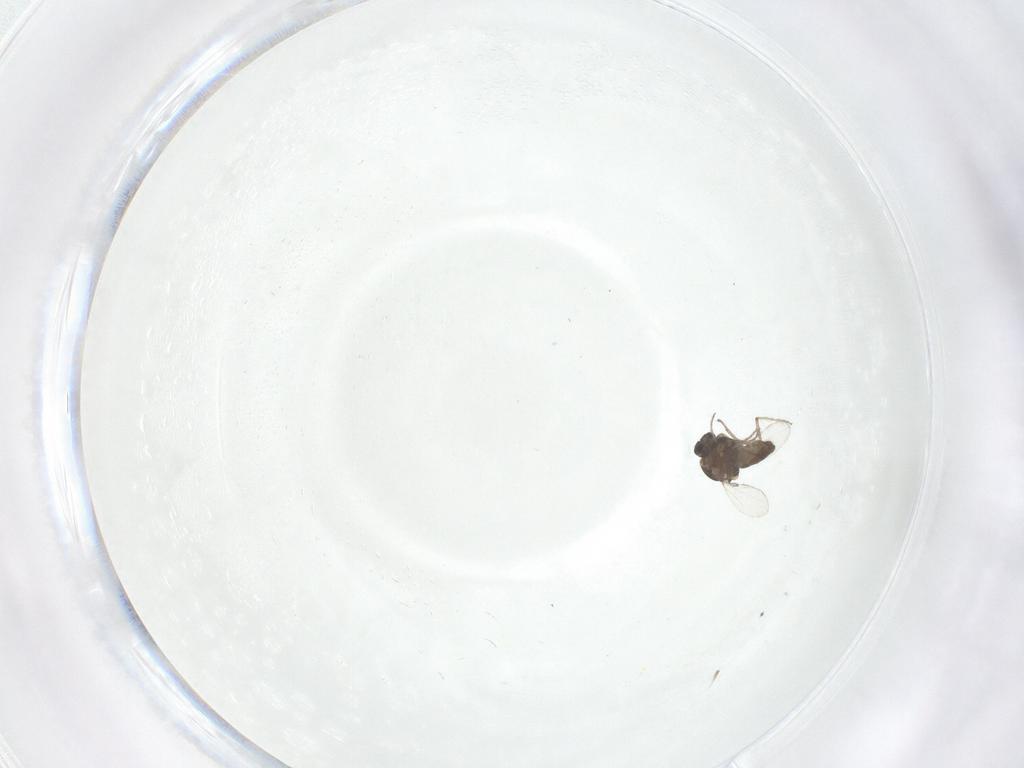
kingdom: Animalia
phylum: Arthropoda
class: Insecta
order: Diptera
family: Ceratopogonidae
